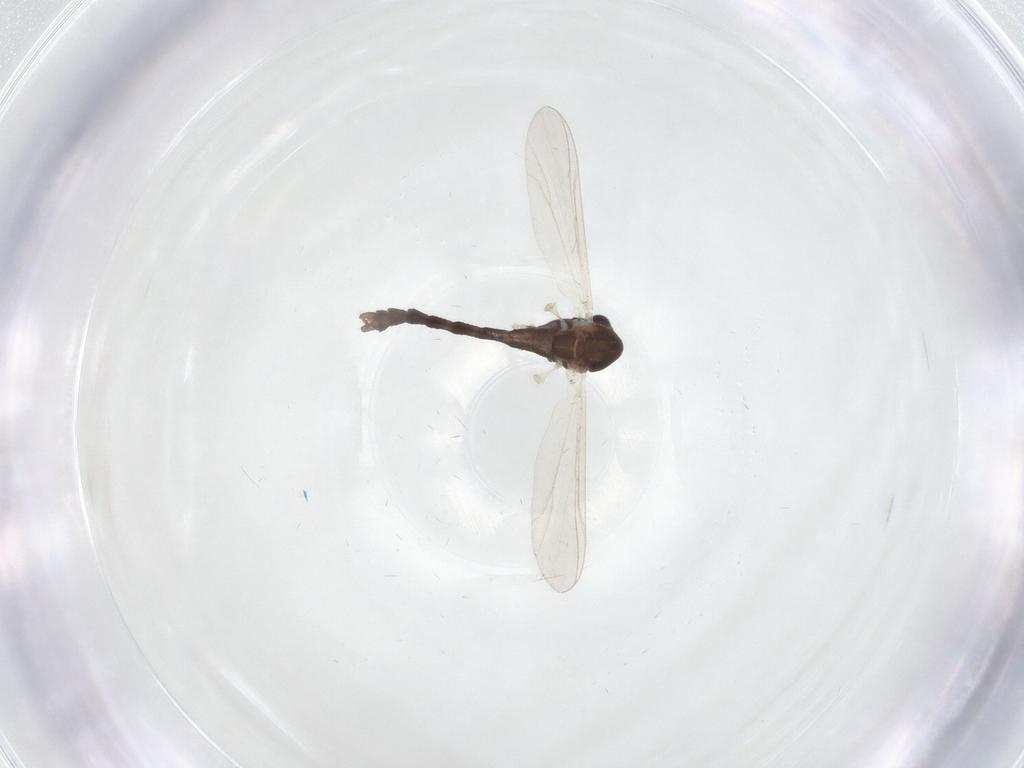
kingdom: Animalia
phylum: Arthropoda
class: Insecta
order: Diptera
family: Chironomidae
